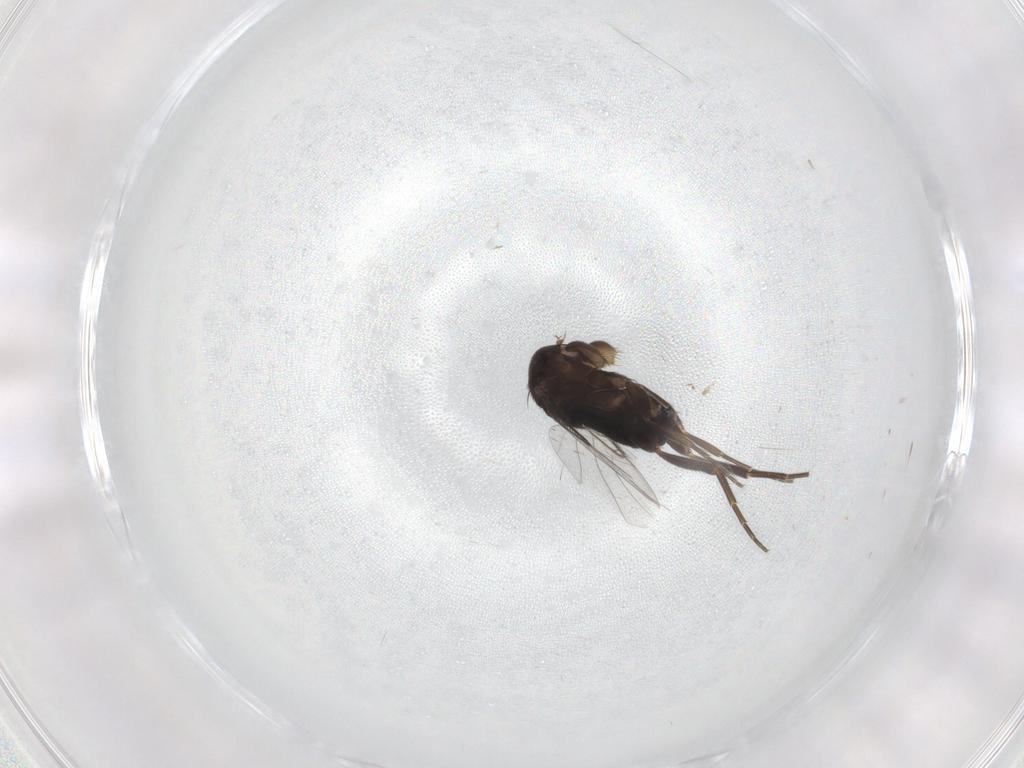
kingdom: Animalia
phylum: Arthropoda
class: Insecta
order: Diptera
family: Phoridae
